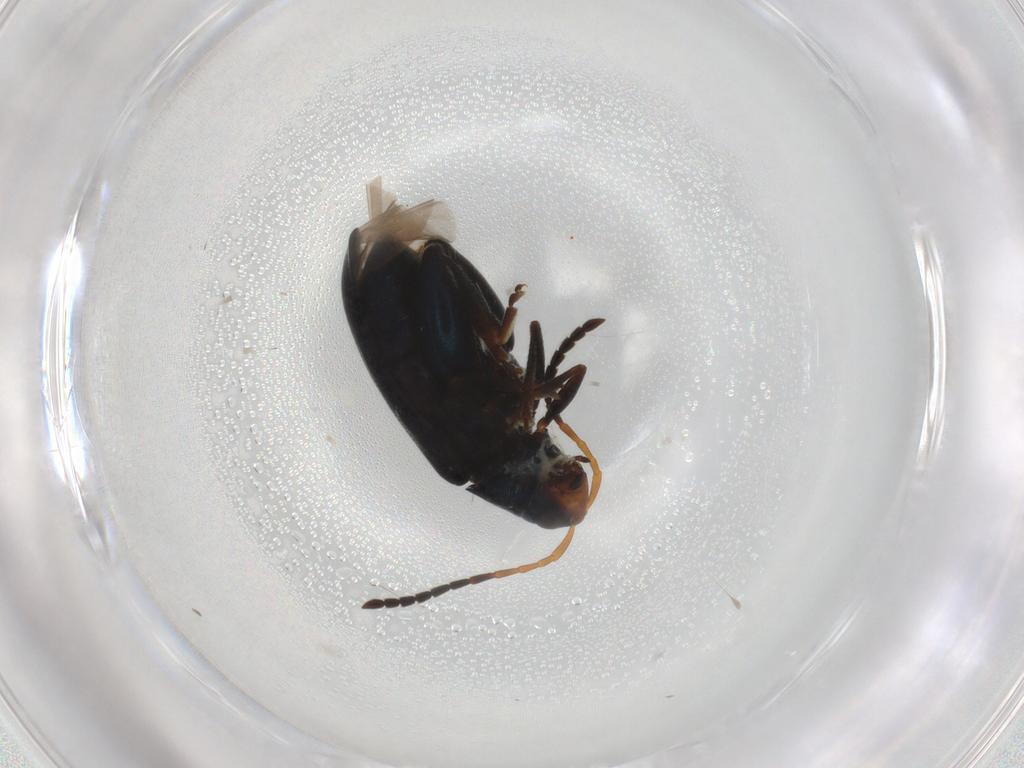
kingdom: Animalia
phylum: Arthropoda
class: Insecta
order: Coleoptera
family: Chrysomelidae
